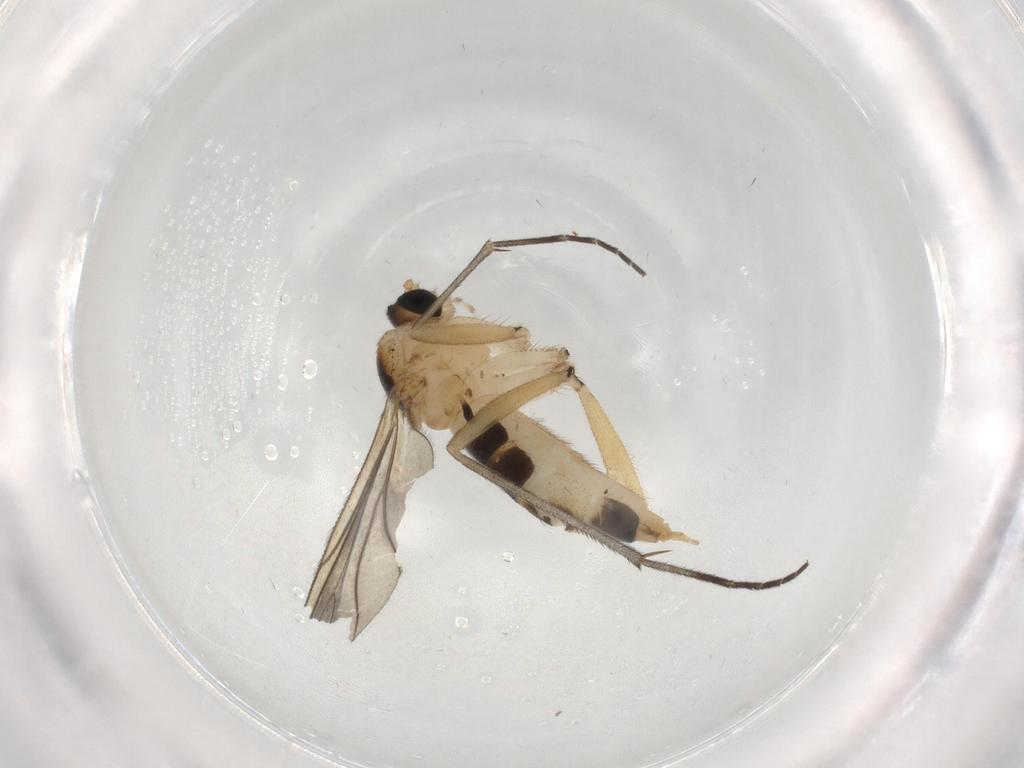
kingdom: Animalia
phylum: Arthropoda
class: Insecta
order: Diptera
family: Sciaridae
